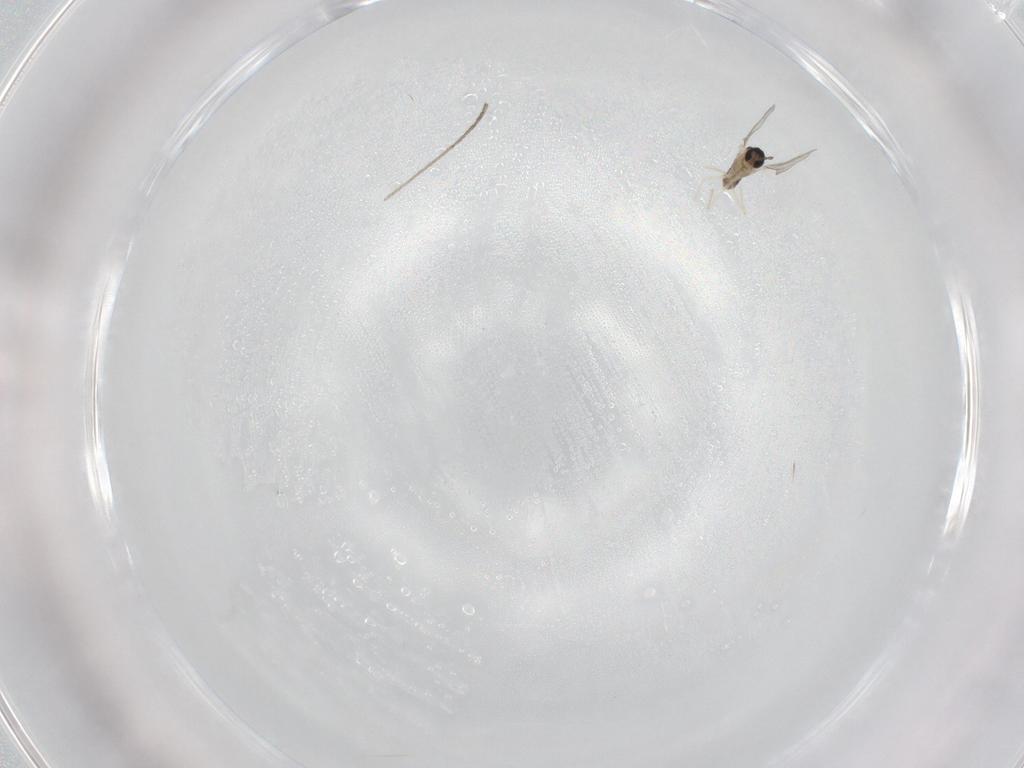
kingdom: Animalia
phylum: Arthropoda
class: Insecta
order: Diptera
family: Cecidomyiidae
